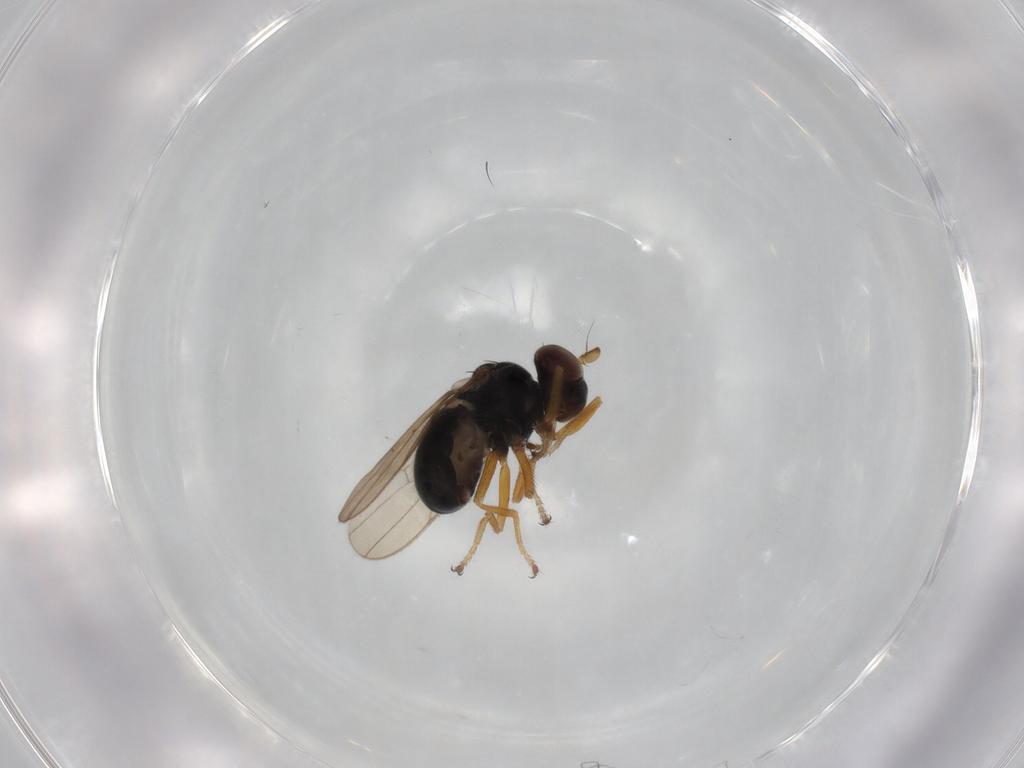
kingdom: Animalia
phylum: Arthropoda
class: Insecta
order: Diptera
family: Ephydridae
